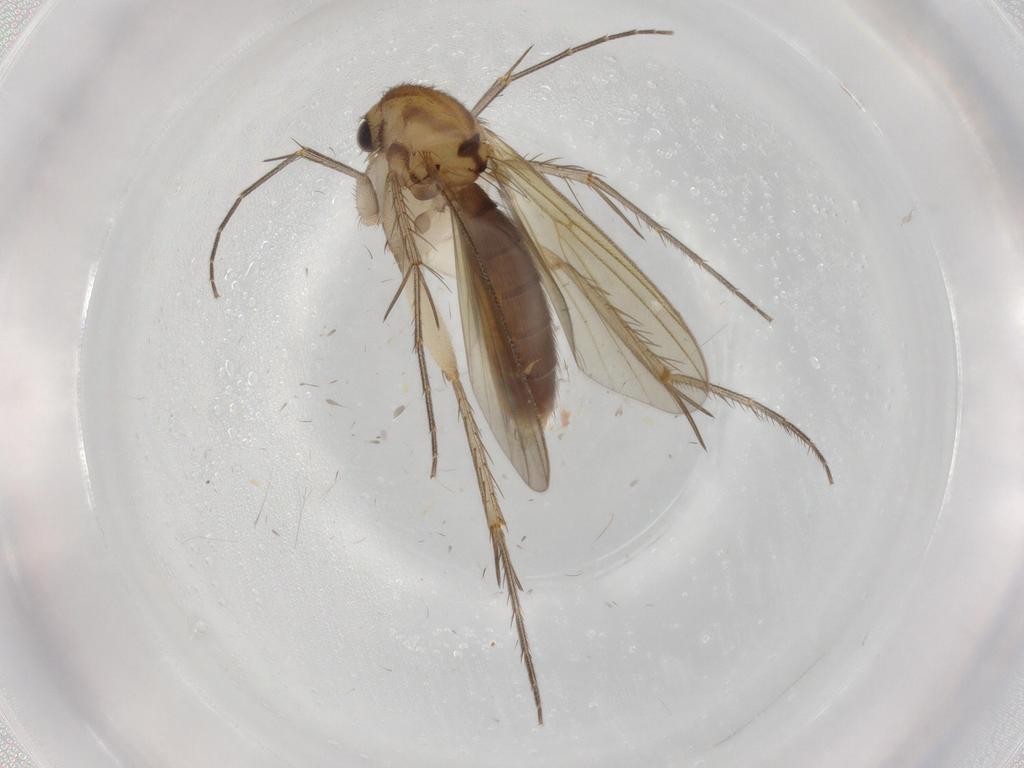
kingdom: Animalia
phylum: Arthropoda
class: Insecta
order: Diptera
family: Mycetophilidae
